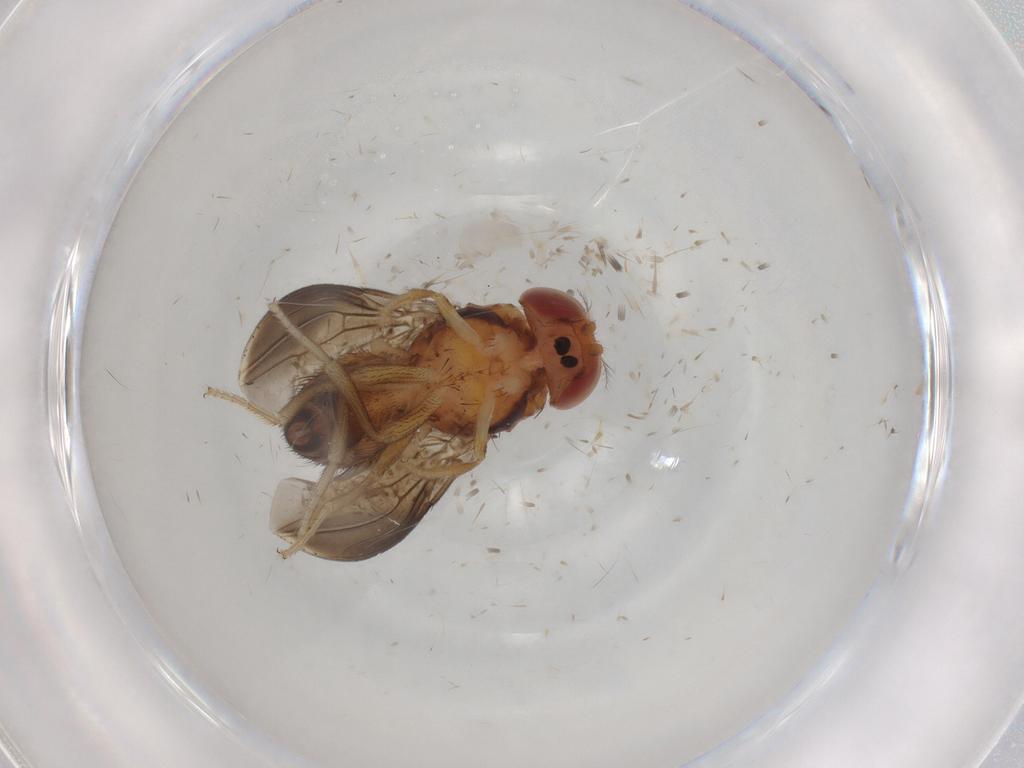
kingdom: Animalia
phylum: Arthropoda
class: Insecta
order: Diptera
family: Drosophilidae
